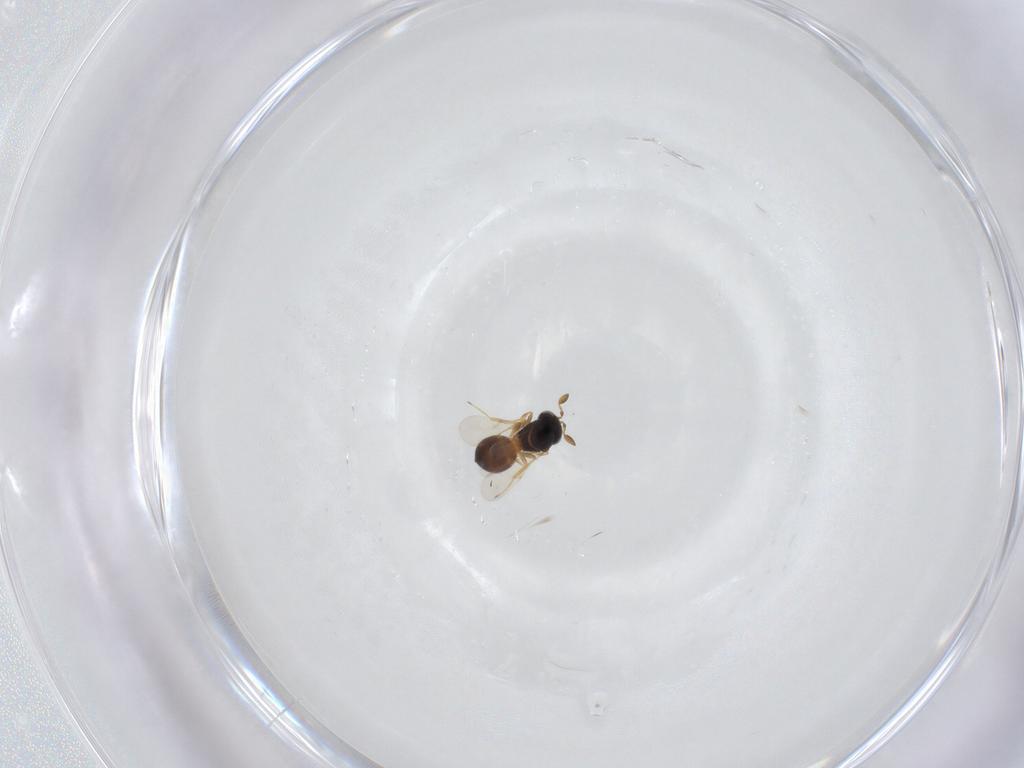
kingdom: Animalia
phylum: Arthropoda
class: Insecta
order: Hymenoptera
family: Scelionidae
